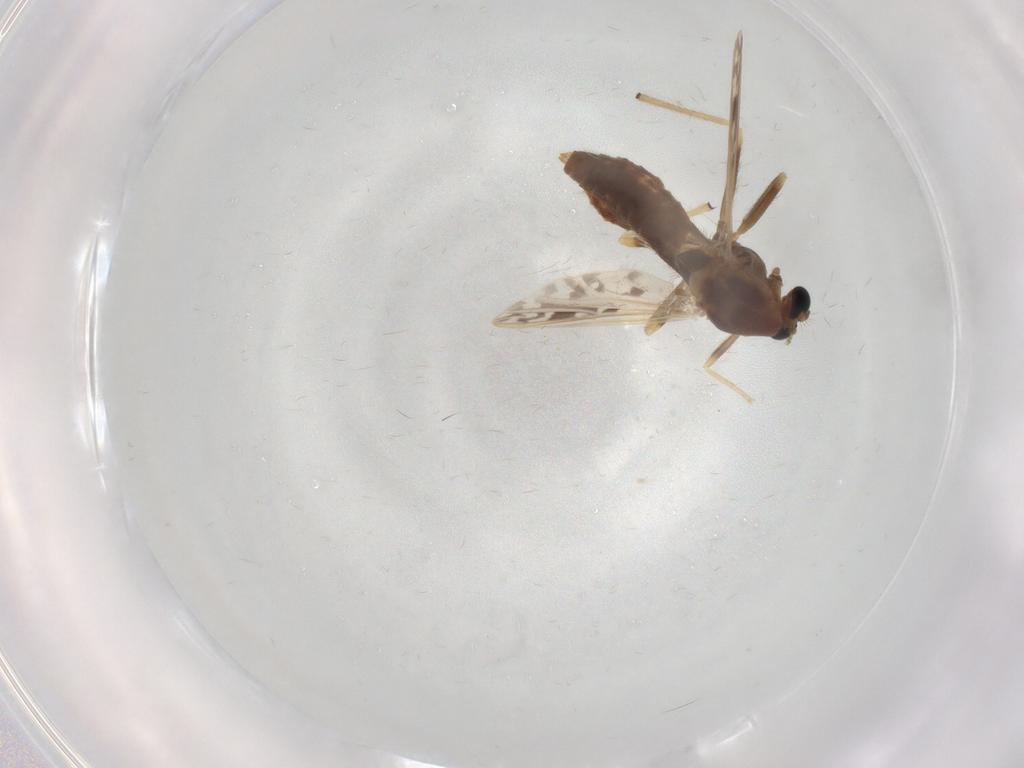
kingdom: Animalia
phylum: Arthropoda
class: Insecta
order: Diptera
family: Chironomidae
